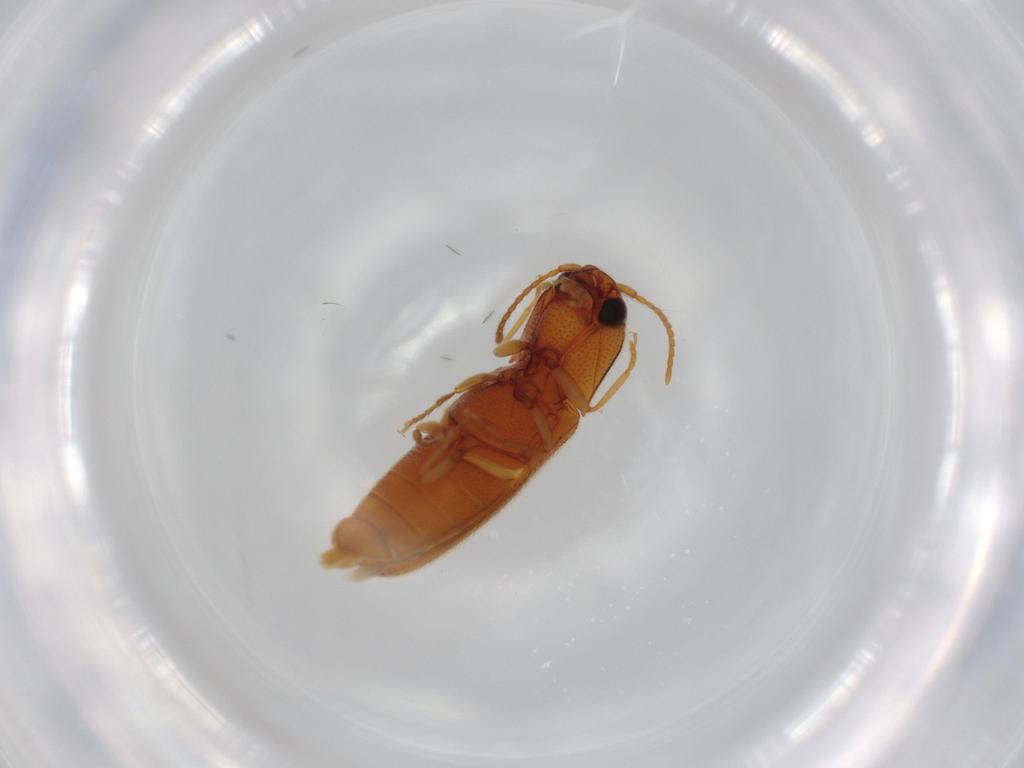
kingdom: Animalia
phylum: Arthropoda
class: Insecta
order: Coleoptera
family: Elateridae
